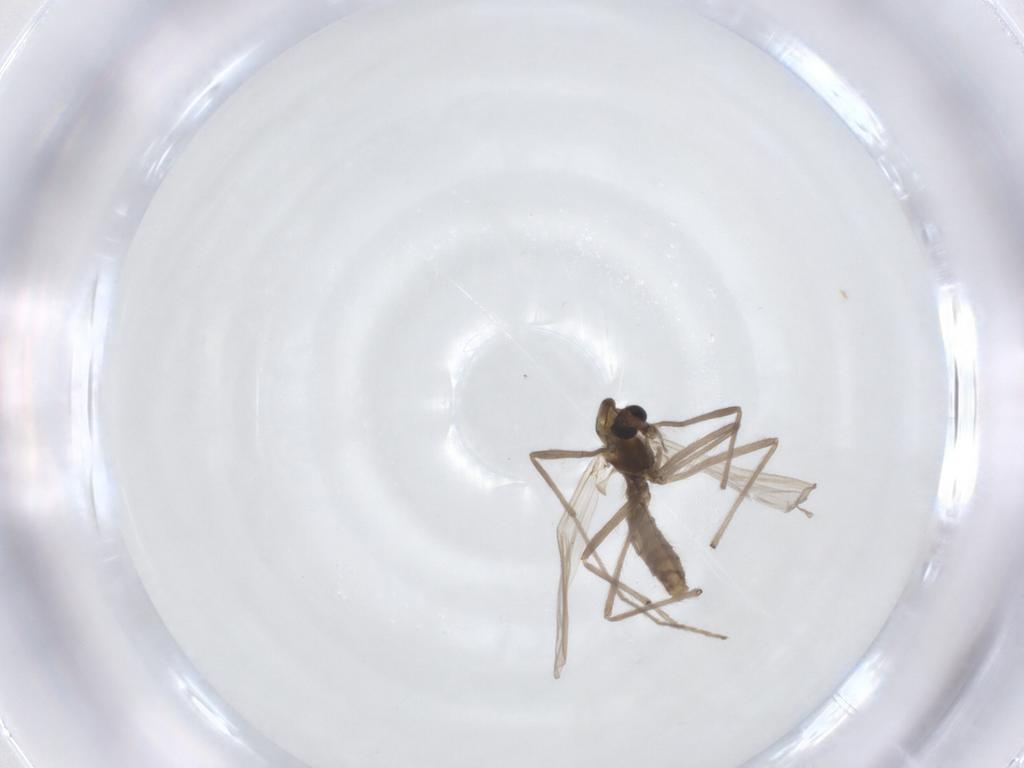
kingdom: Animalia
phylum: Arthropoda
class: Insecta
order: Diptera
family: Chironomidae
